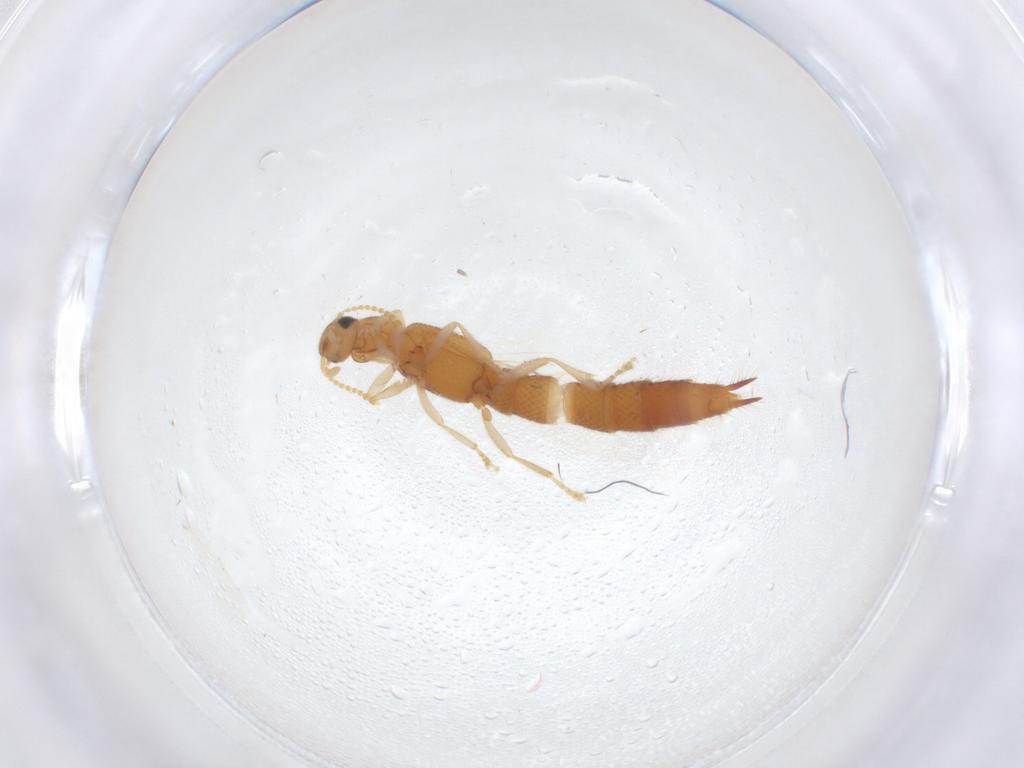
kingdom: Animalia
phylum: Arthropoda
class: Insecta
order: Coleoptera
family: Staphylinidae
